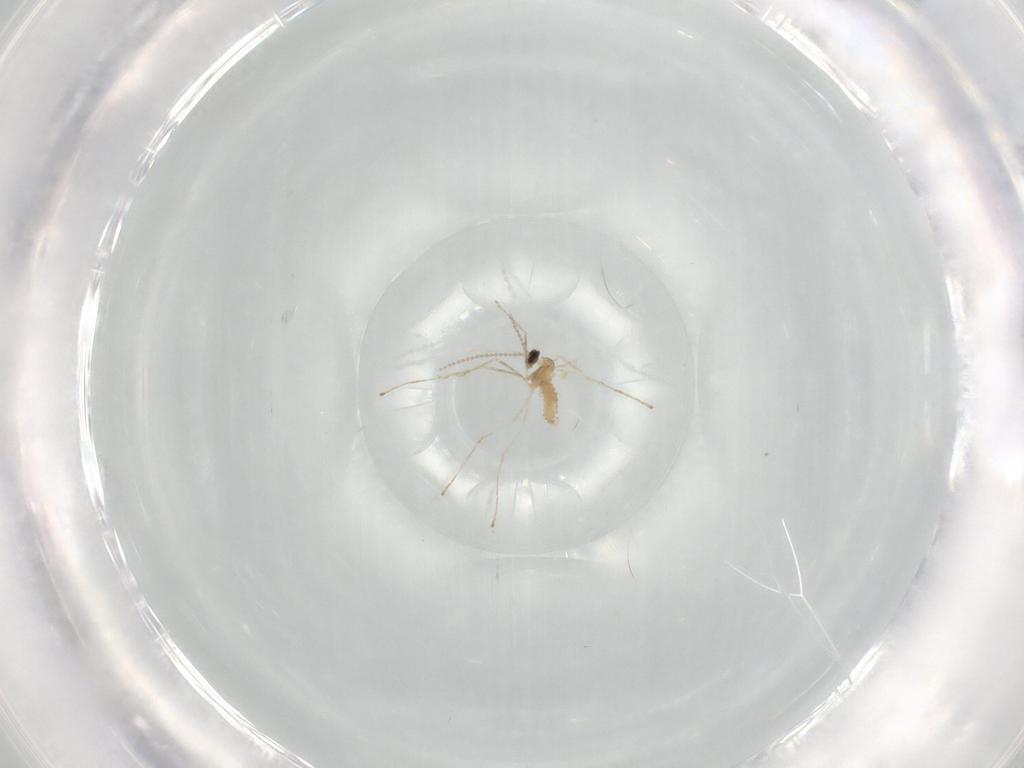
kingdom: Animalia
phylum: Arthropoda
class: Insecta
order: Diptera
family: Cecidomyiidae
